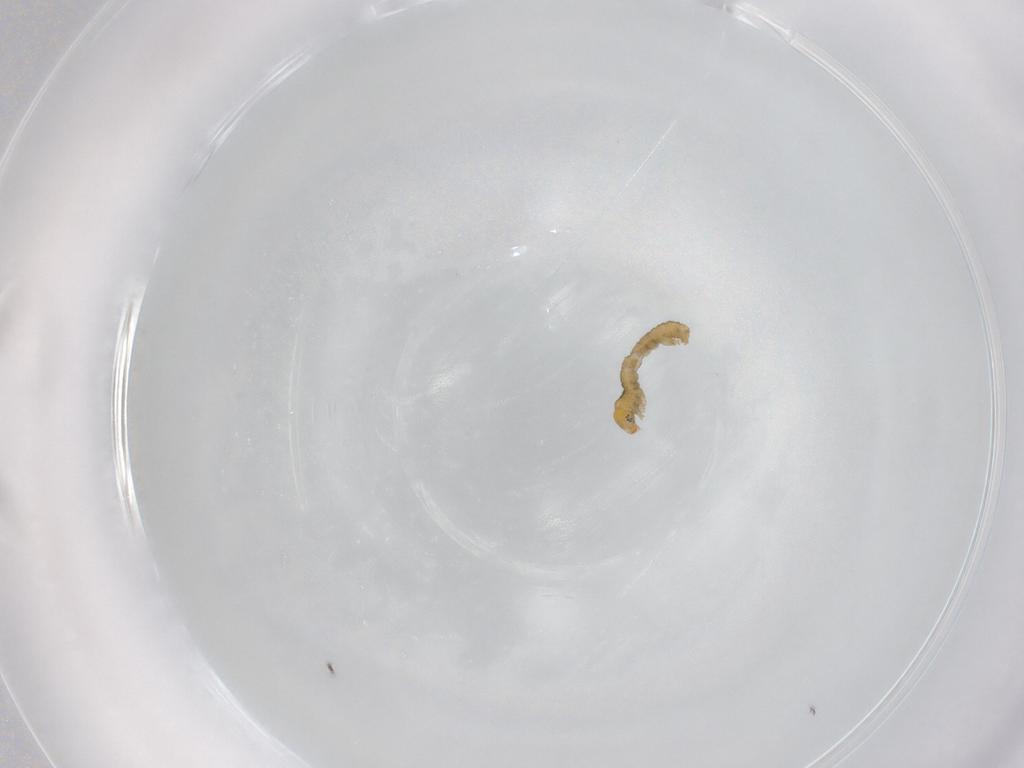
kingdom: Animalia
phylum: Arthropoda
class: Insecta
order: Lepidoptera
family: Geometridae
